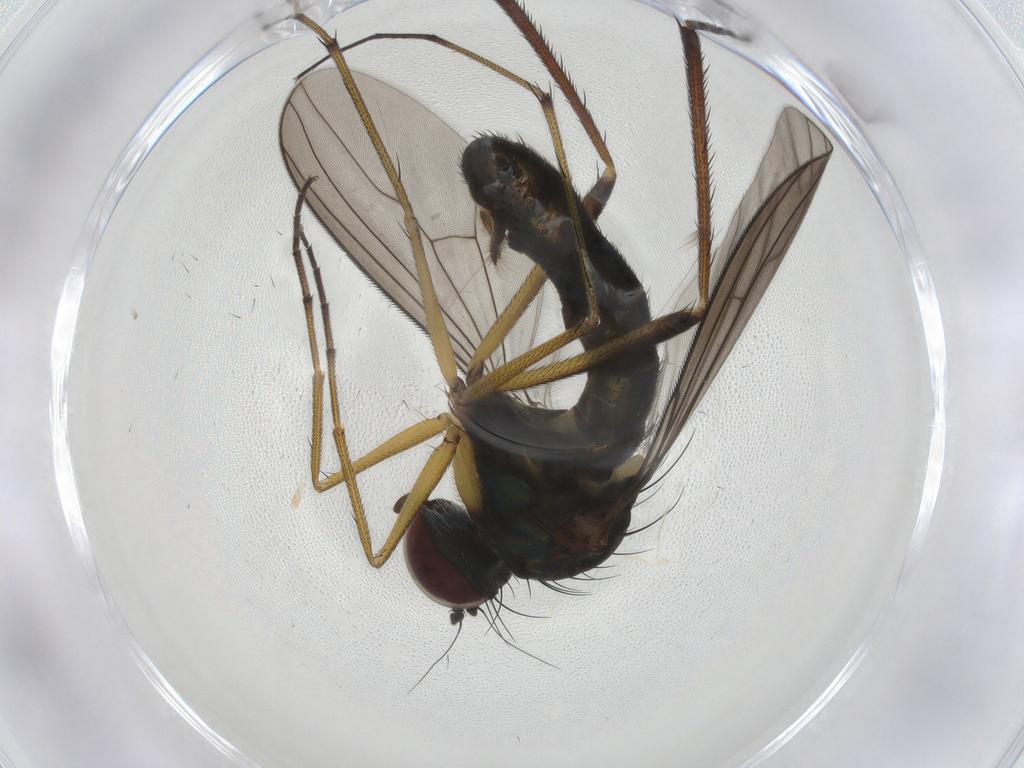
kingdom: Animalia
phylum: Arthropoda
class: Insecta
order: Diptera
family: Dolichopodidae
